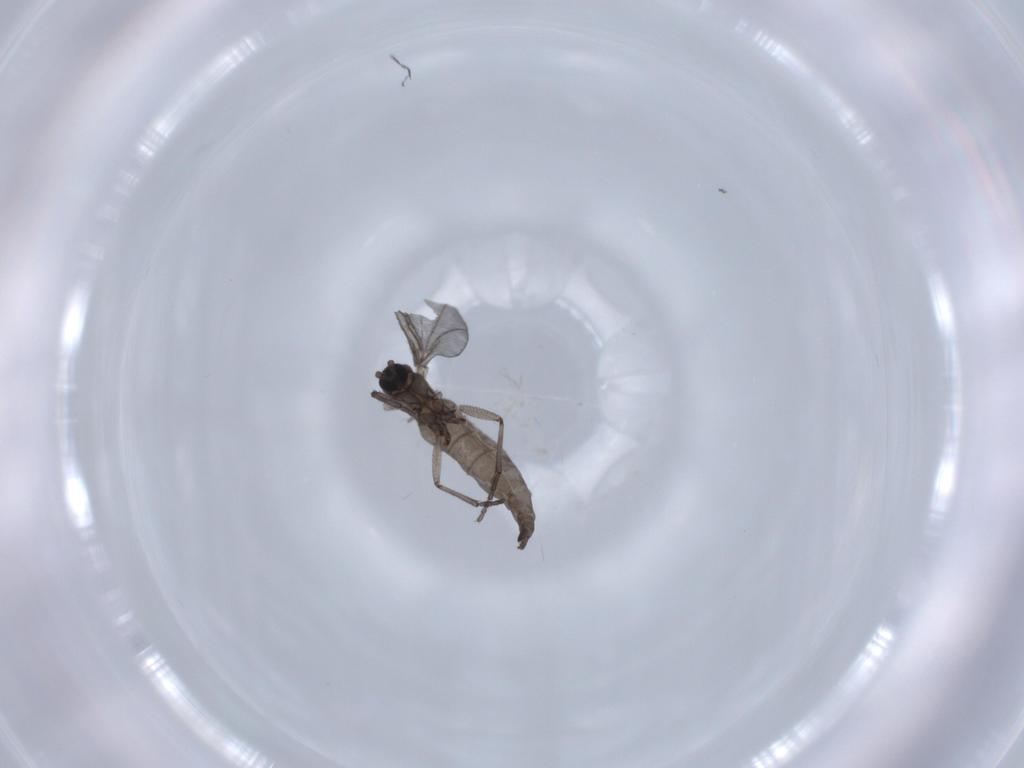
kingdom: Animalia
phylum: Arthropoda
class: Insecta
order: Diptera
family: Sciaridae
